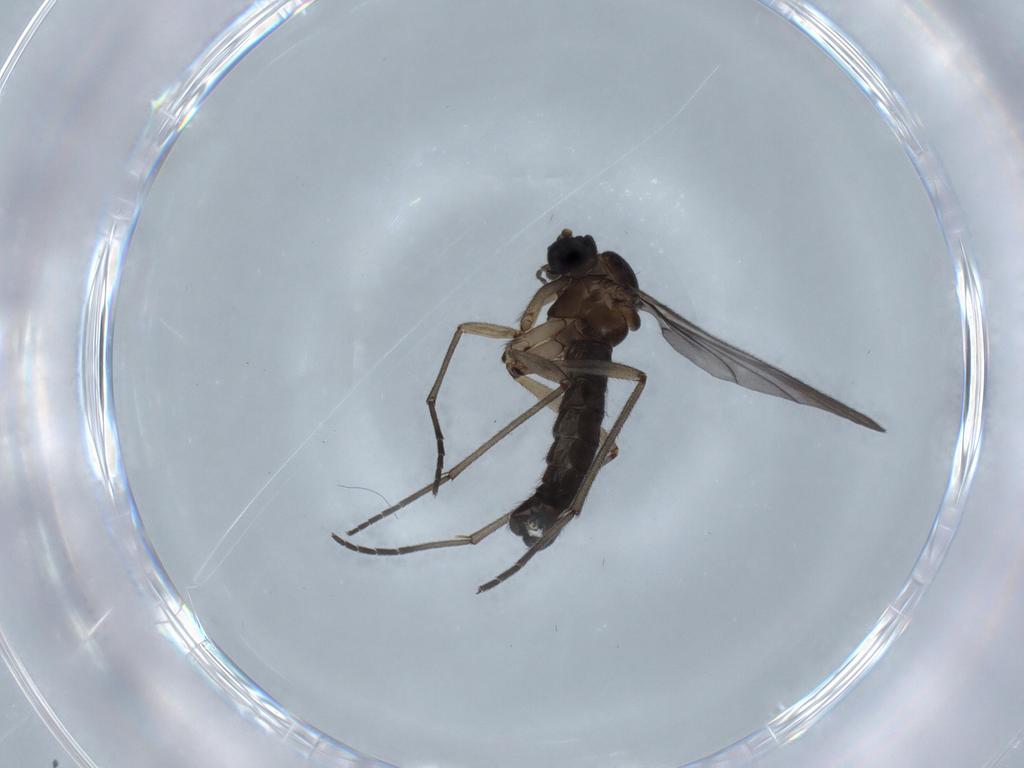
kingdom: Animalia
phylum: Arthropoda
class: Insecta
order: Diptera
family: Sciaridae
